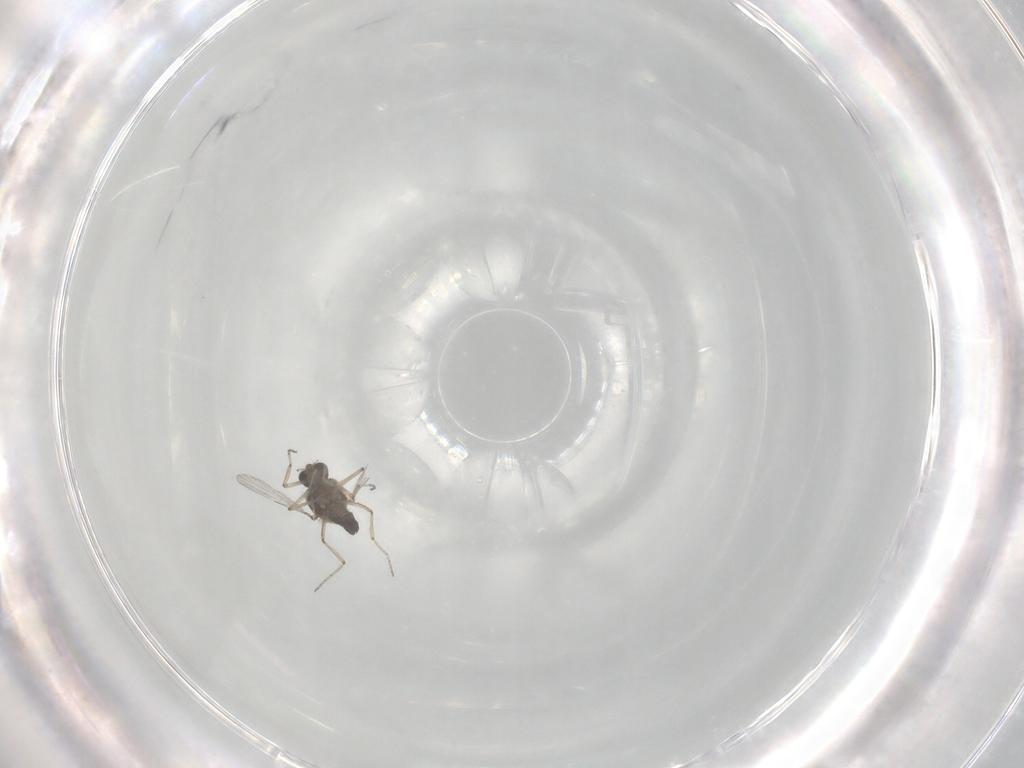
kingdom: Animalia
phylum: Arthropoda
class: Insecta
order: Diptera
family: Ceratopogonidae
